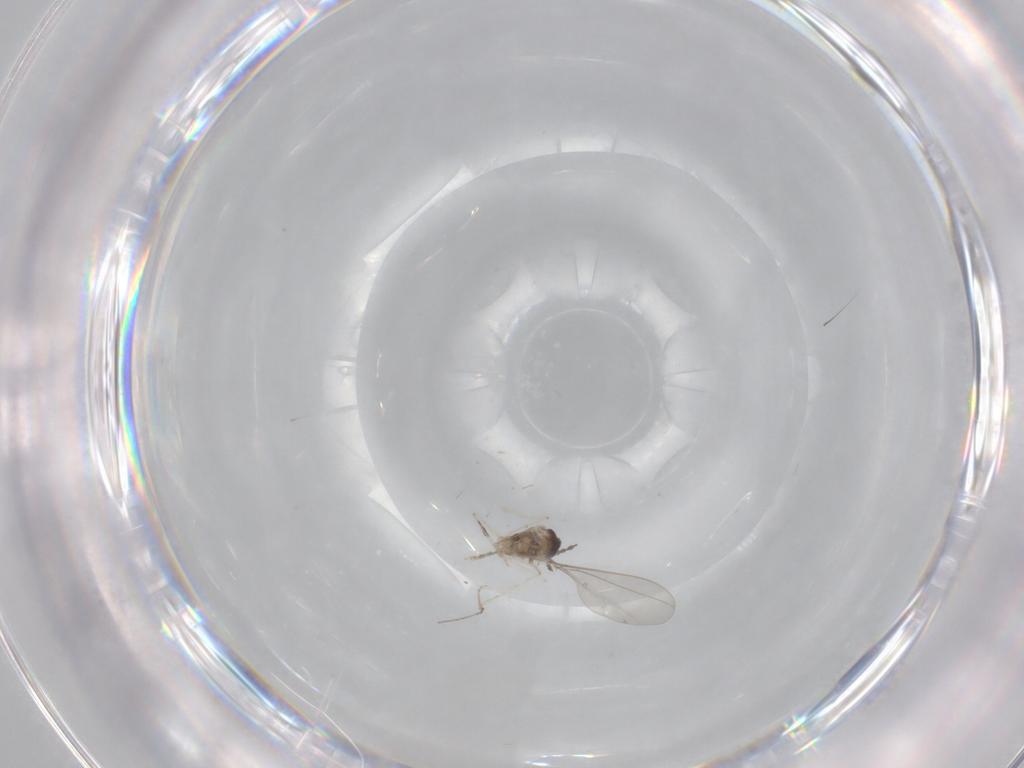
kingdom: Animalia
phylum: Arthropoda
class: Insecta
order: Diptera
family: Cecidomyiidae
